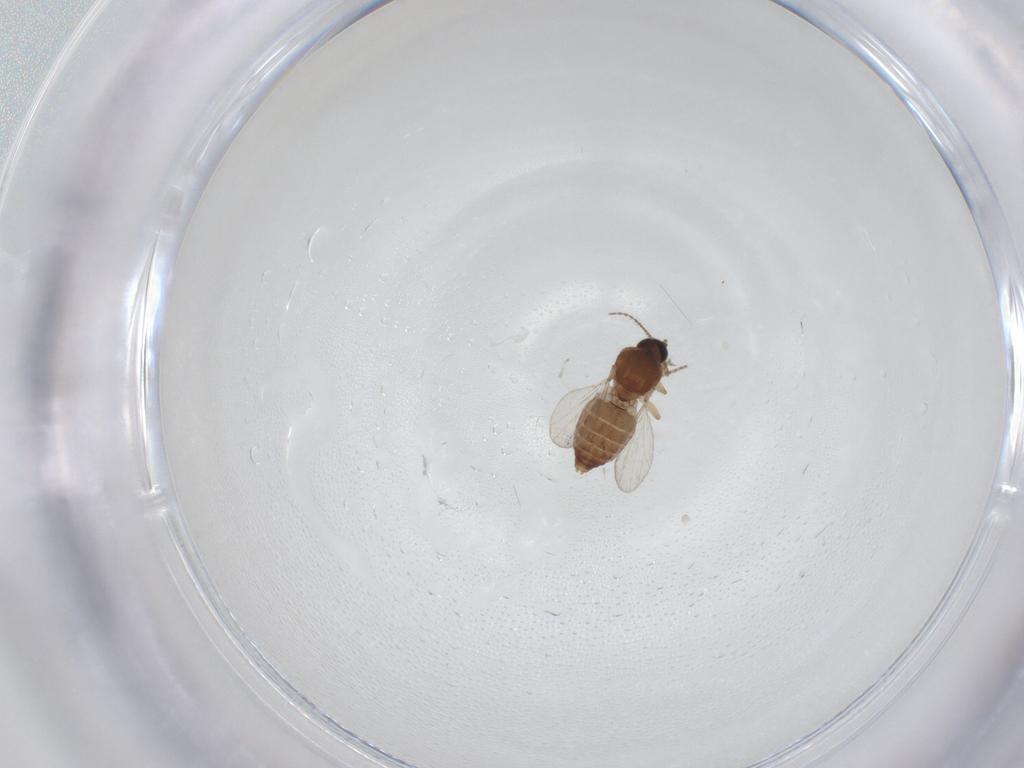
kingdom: Animalia
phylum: Arthropoda
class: Insecta
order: Diptera
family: Ceratopogonidae
